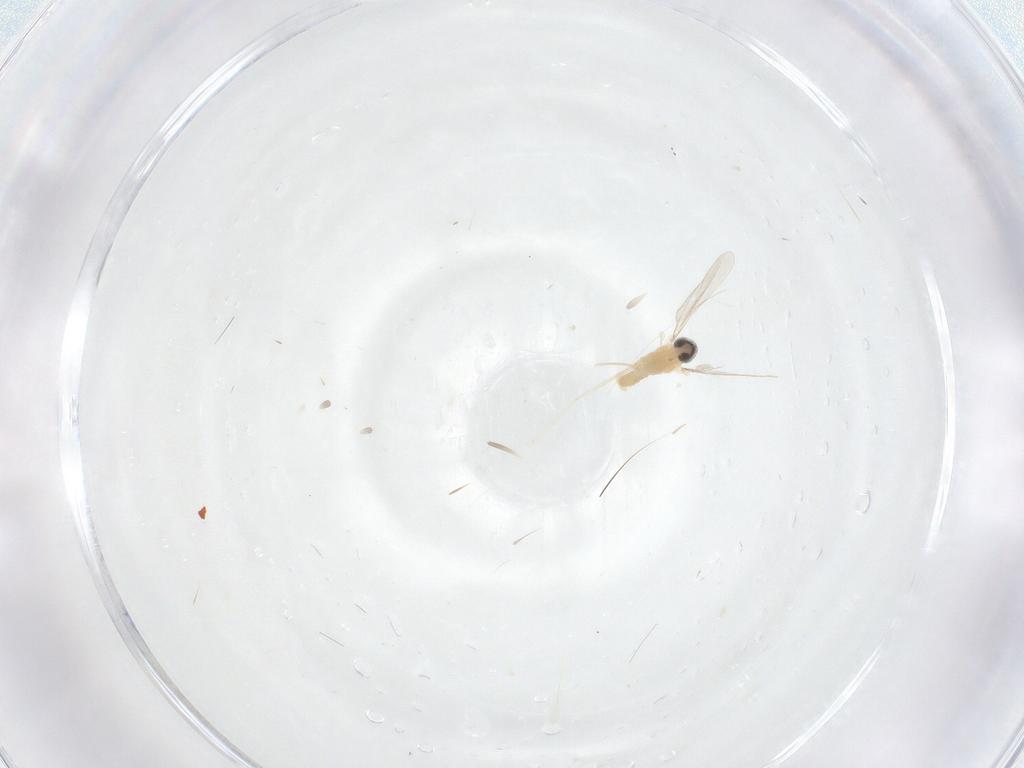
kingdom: Animalia
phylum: Arthropoda
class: Insecta
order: Diptera
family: Cecidomyiidae
